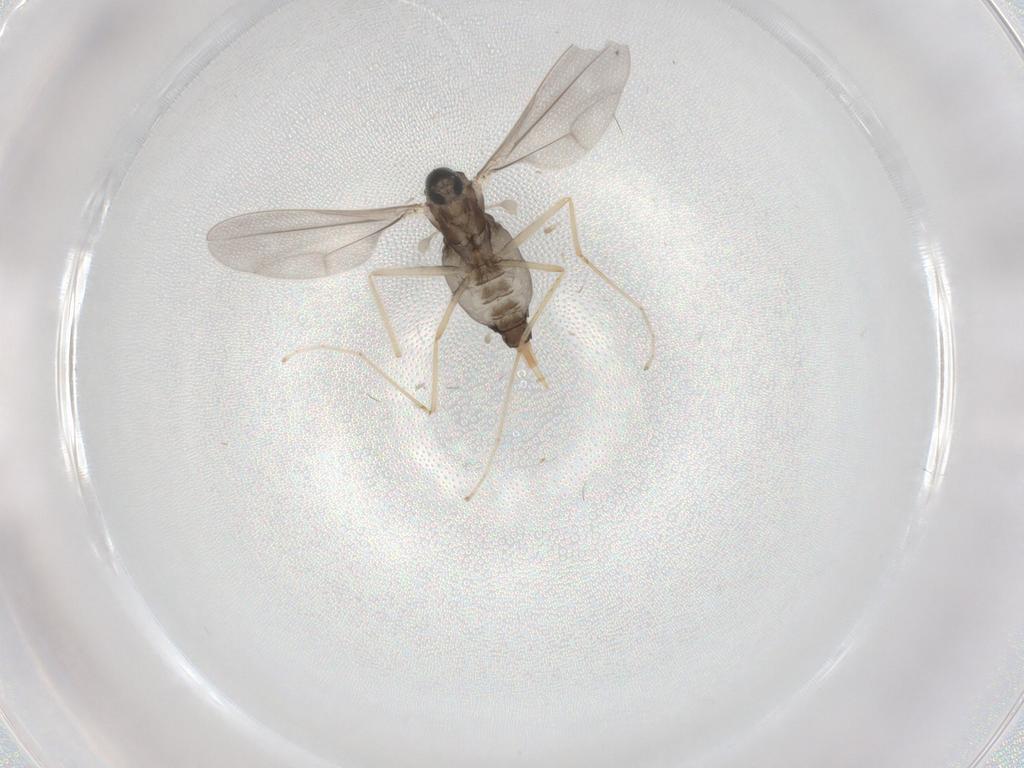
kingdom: Animalia
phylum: Arthropoda
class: Insecta
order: Diptera
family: Cecidomyiidae
